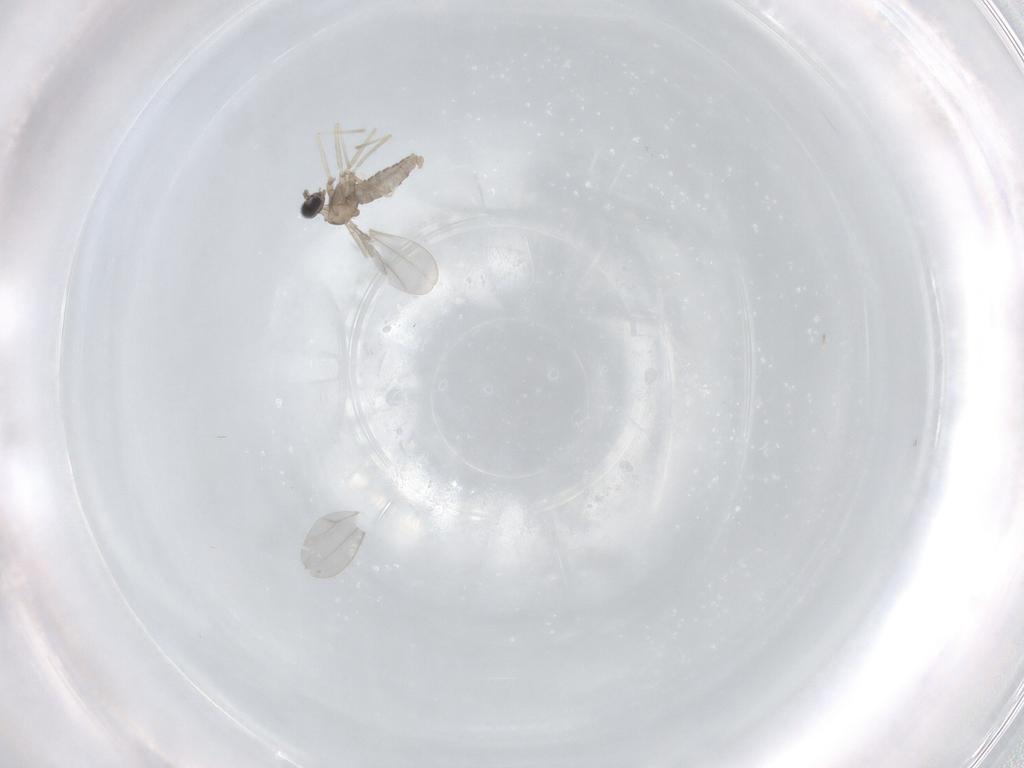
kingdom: Animalia
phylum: Arthropoda
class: Insecta
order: Diptera
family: Cecidomyiidae
